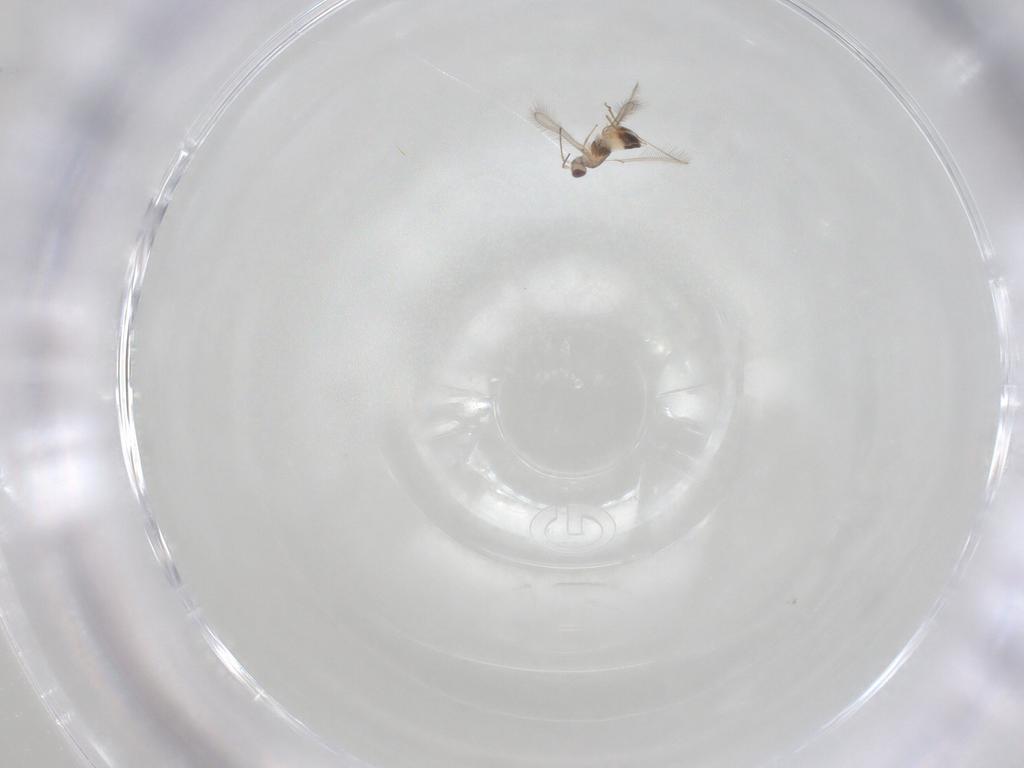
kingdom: Animalia
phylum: Arthropoda
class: Insecta
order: Hymenoptera
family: Mymaridae
